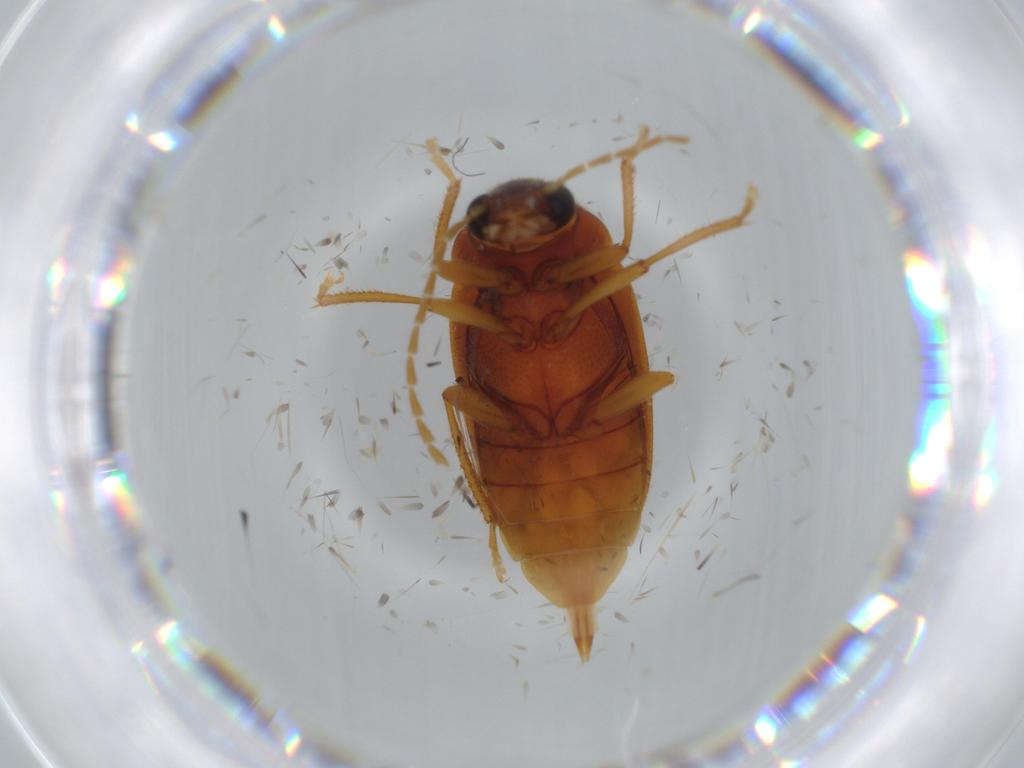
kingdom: Animalia
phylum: Arthropoda
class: Insecta
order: Coleoptera
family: Ptilodactylidae
